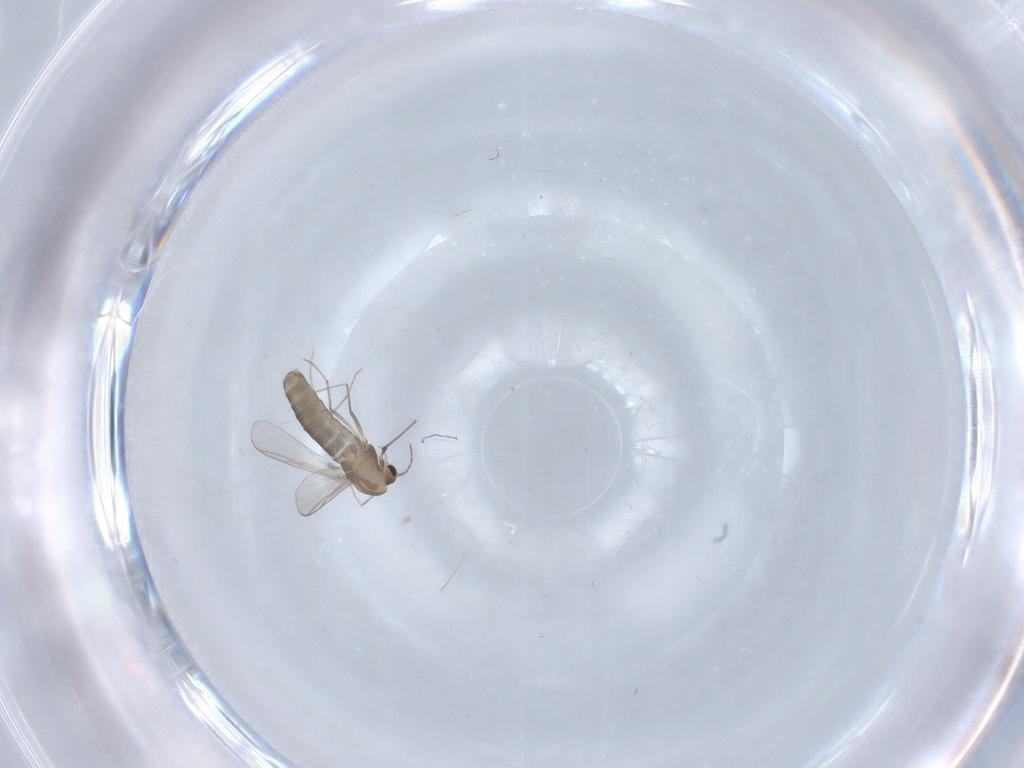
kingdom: Animalia
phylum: Arthropoda
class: Insecta
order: Diptera
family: Chironomidae
